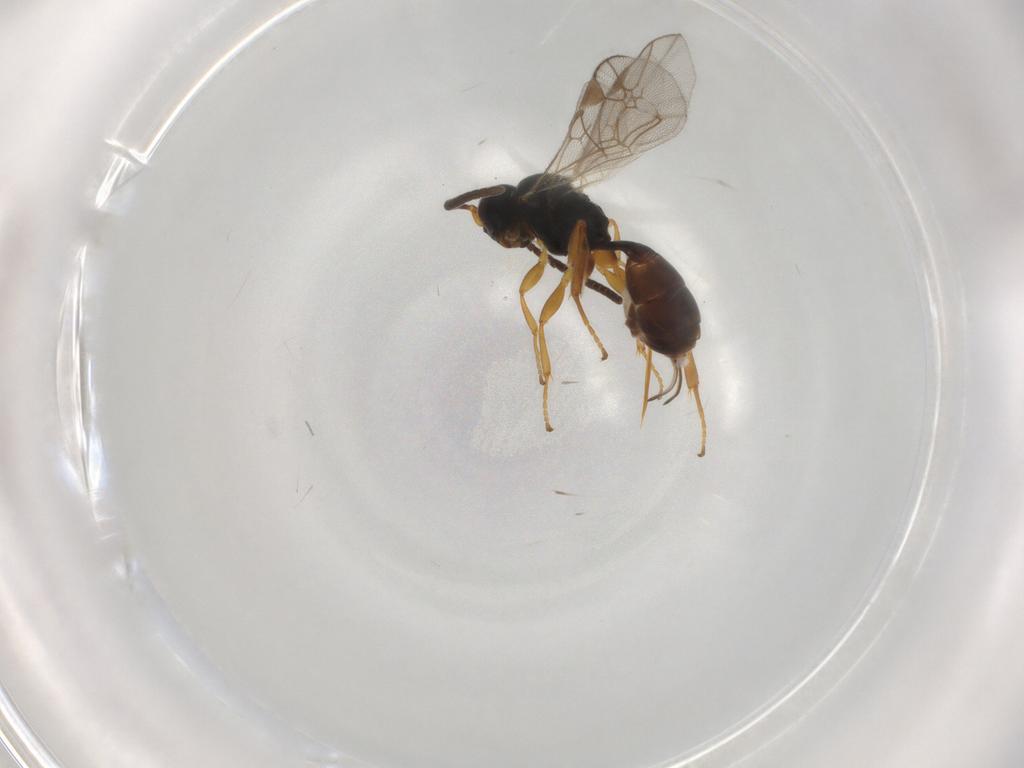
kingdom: Animalia
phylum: Arthropoda
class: Insecta
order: Hymenoptera
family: Ichneumonidae
